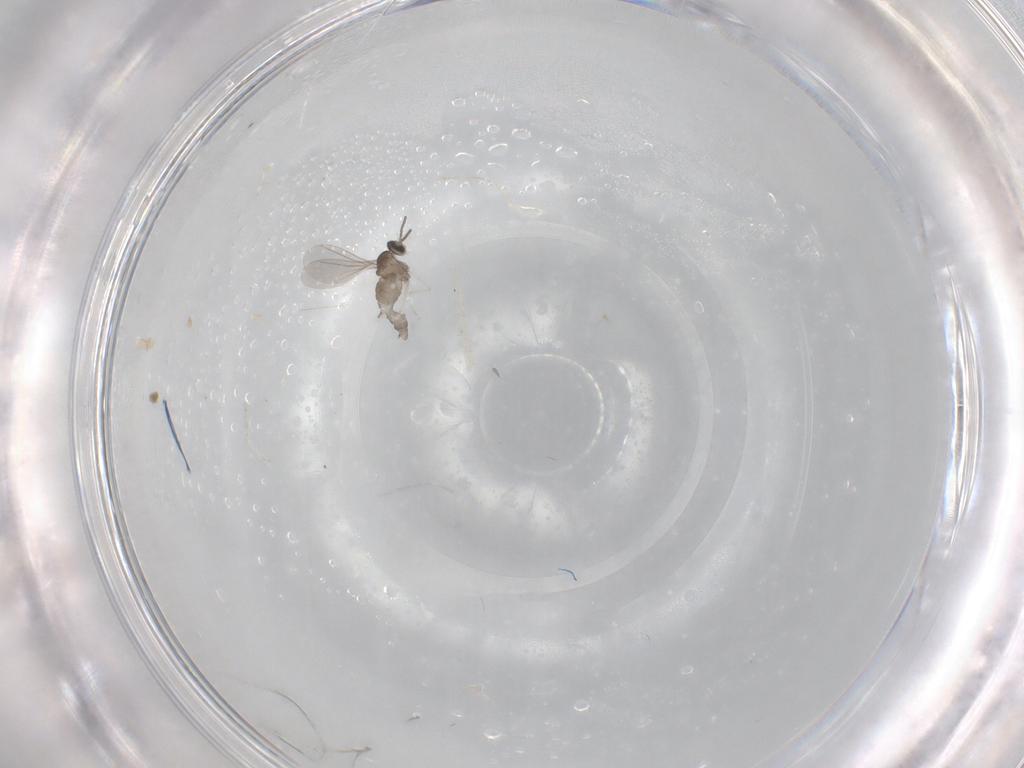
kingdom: Animalia
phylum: Arthropoda
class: Insecta
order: Diptera
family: Cecidomyiidae
